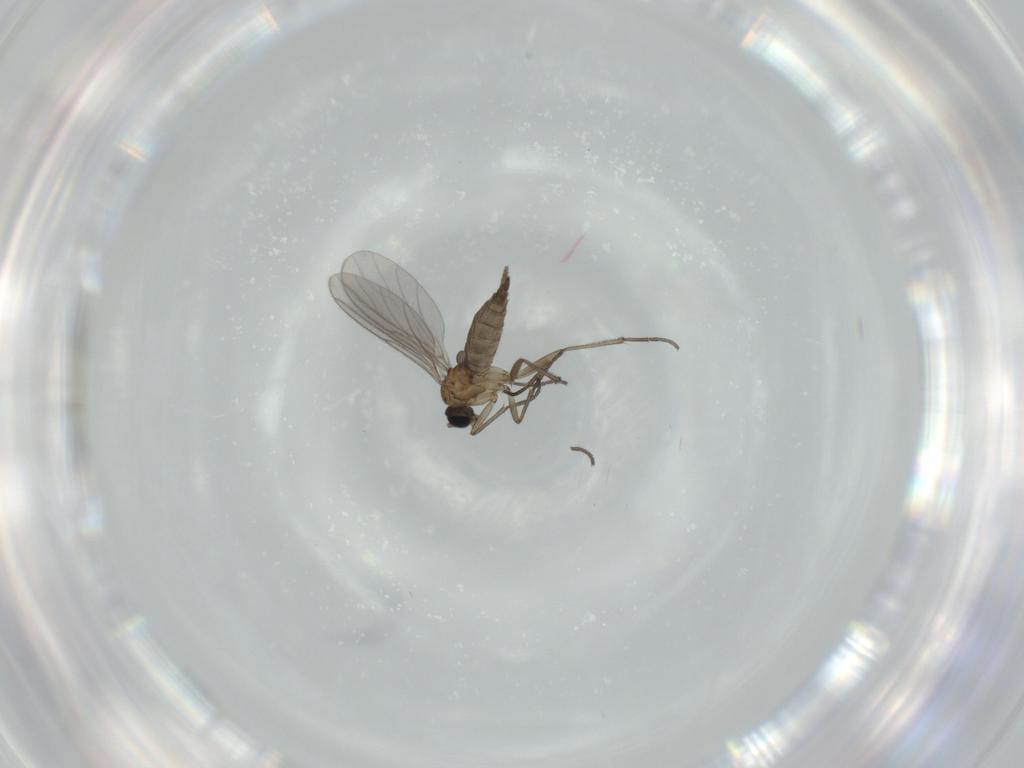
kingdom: Animalia
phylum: Arthropoda
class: Insecta
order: Diptera
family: Sciaridae
